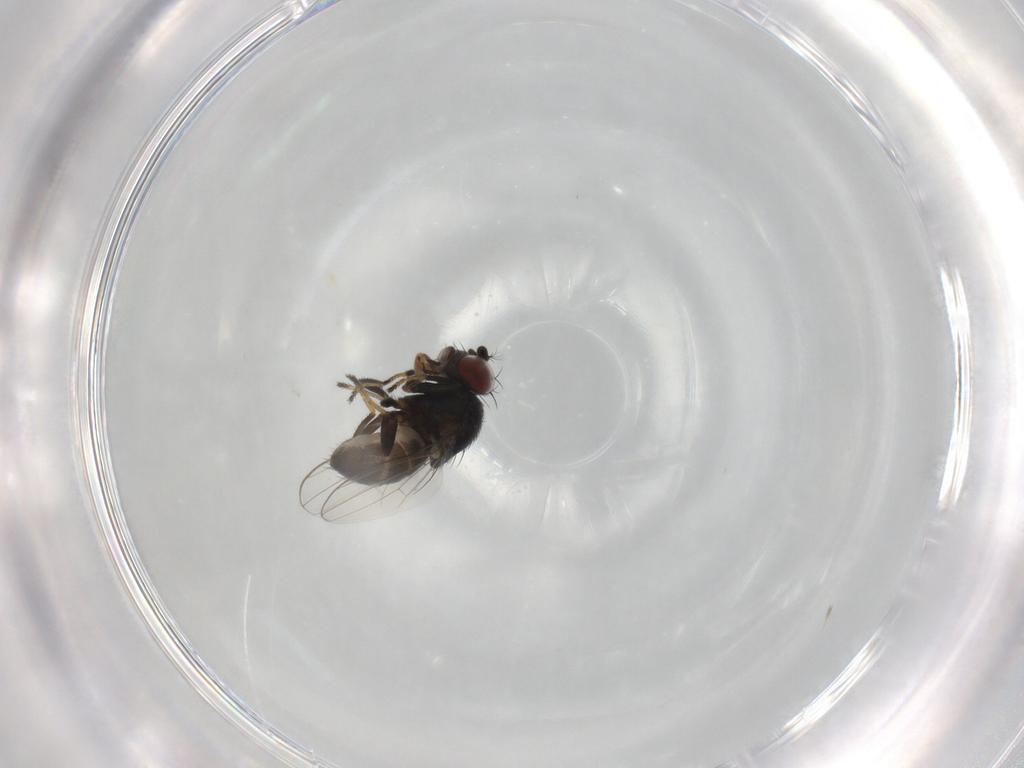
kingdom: Animalia
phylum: Arthropoda
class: Insecta
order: Diptera
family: Ephydridae
